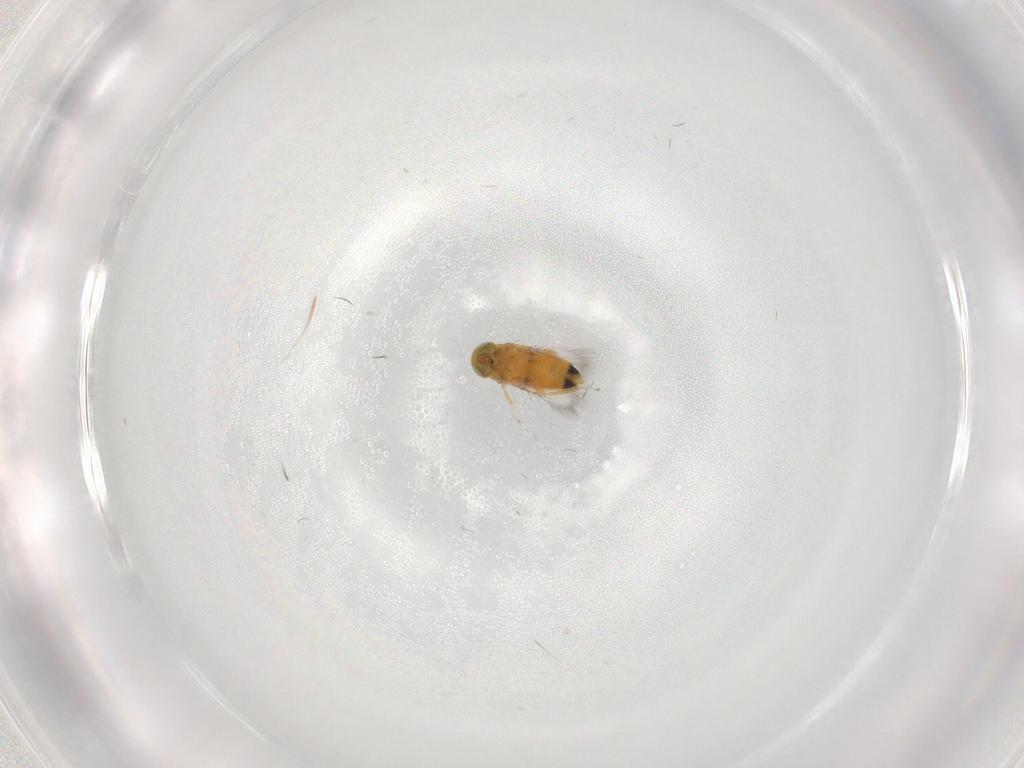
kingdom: Animalia
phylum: Arthropoda
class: Insecta
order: Hymenoptera
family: Signiphoridae
